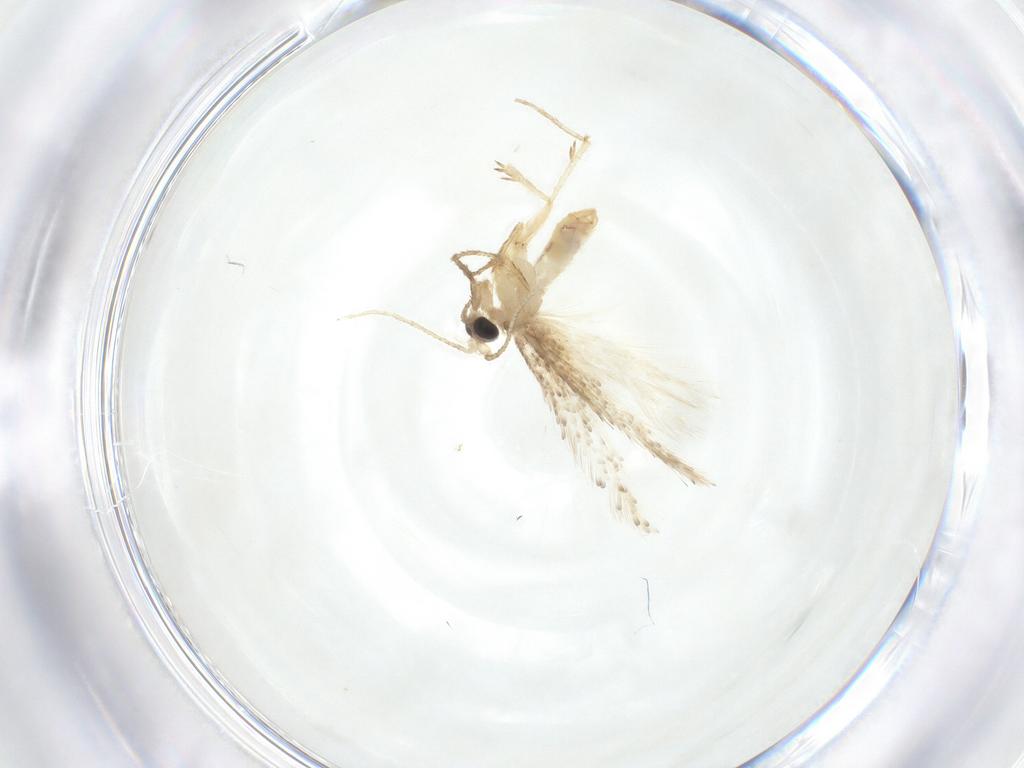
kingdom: Animalia
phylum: Arthropoda
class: Insecta
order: Lepidoptera
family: Nepticulidae
